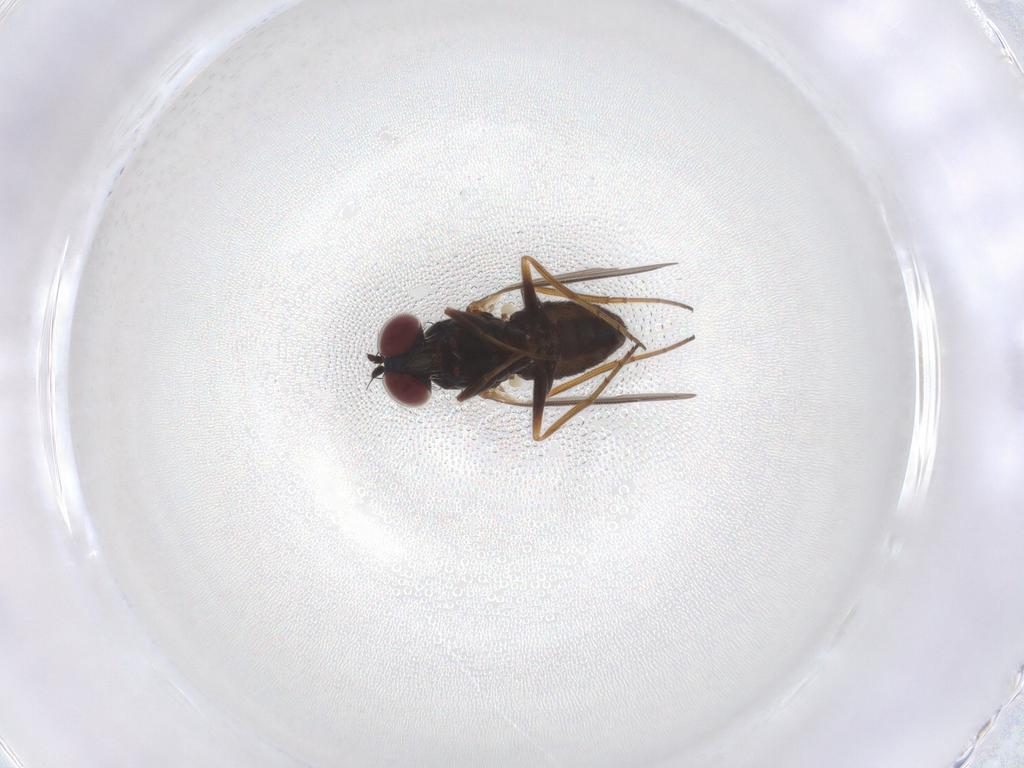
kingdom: Animalia
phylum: Arthropoda
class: Insecta
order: Diptera
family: Dolichopodidae
